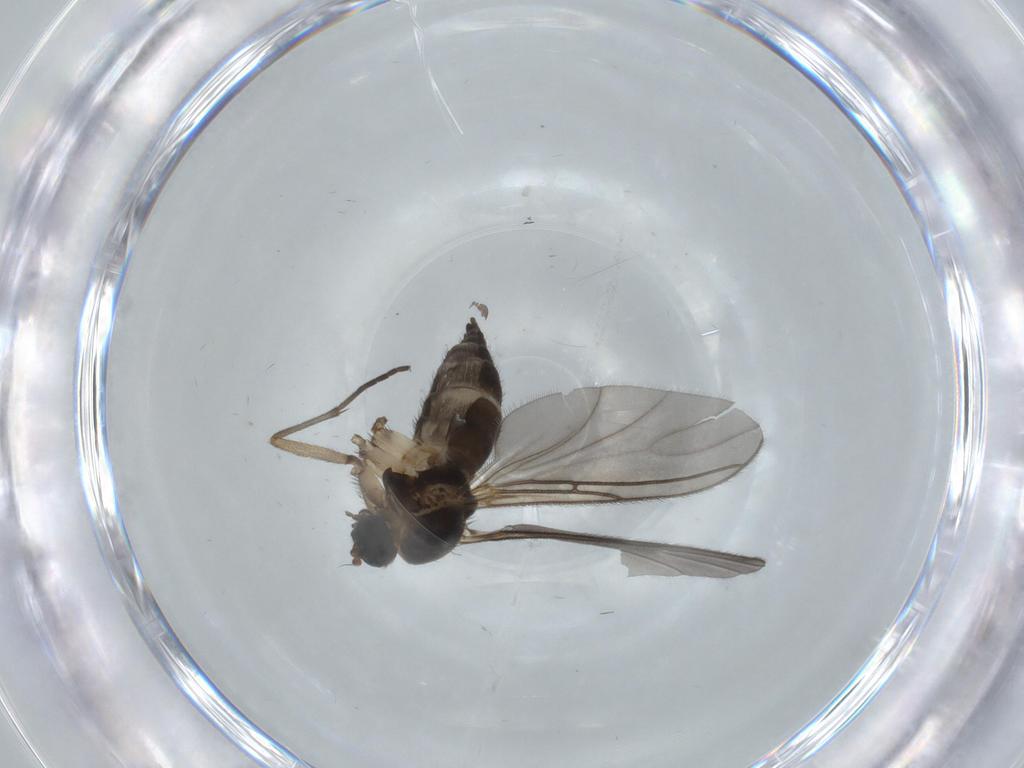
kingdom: Animalia
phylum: Arthropoda
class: Insecta
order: Diptera
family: Sciaridae
